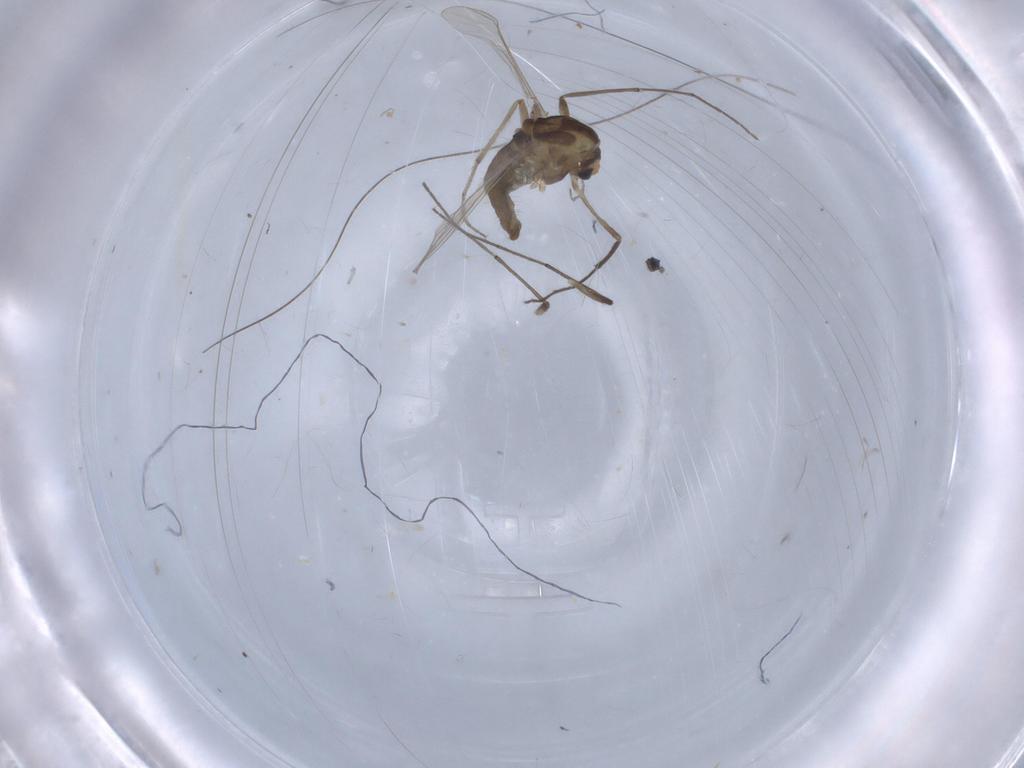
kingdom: Animalia
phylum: Arthropoda
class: Insecta
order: Diptera
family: Chironomidae
